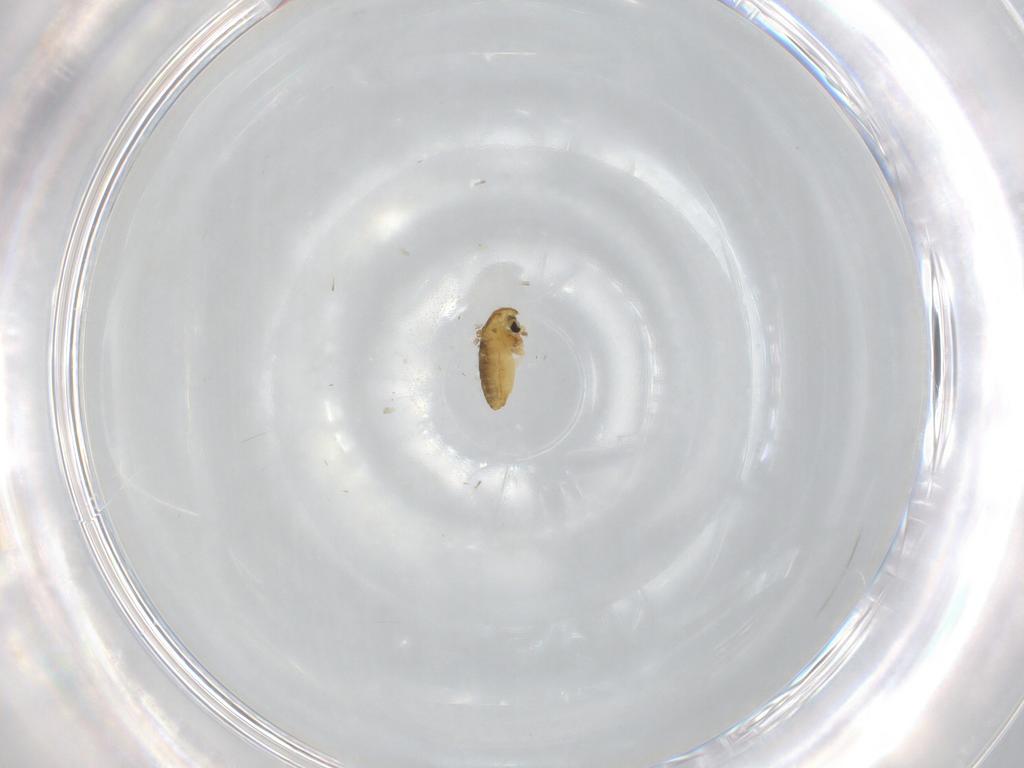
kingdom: Animalia
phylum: Arthropoda
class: Insecta
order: Diptera
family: Chironomidae
